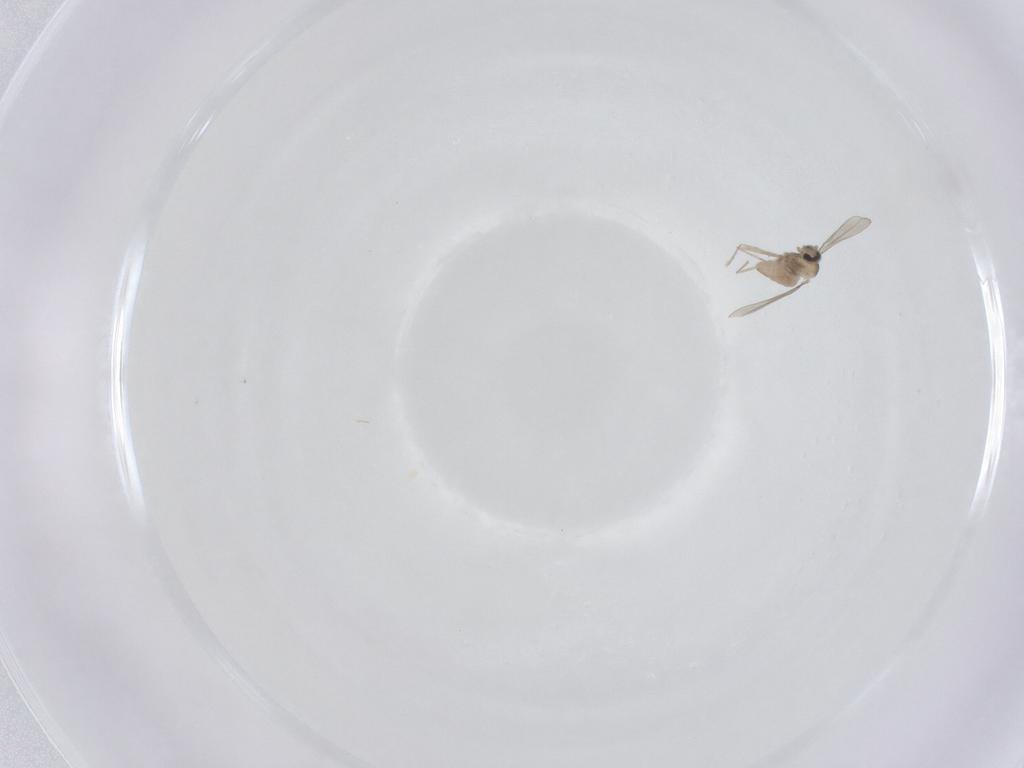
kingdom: Animalia
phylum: Arthropoda
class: Insecta
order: Diptera
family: Cecidomyiidae
